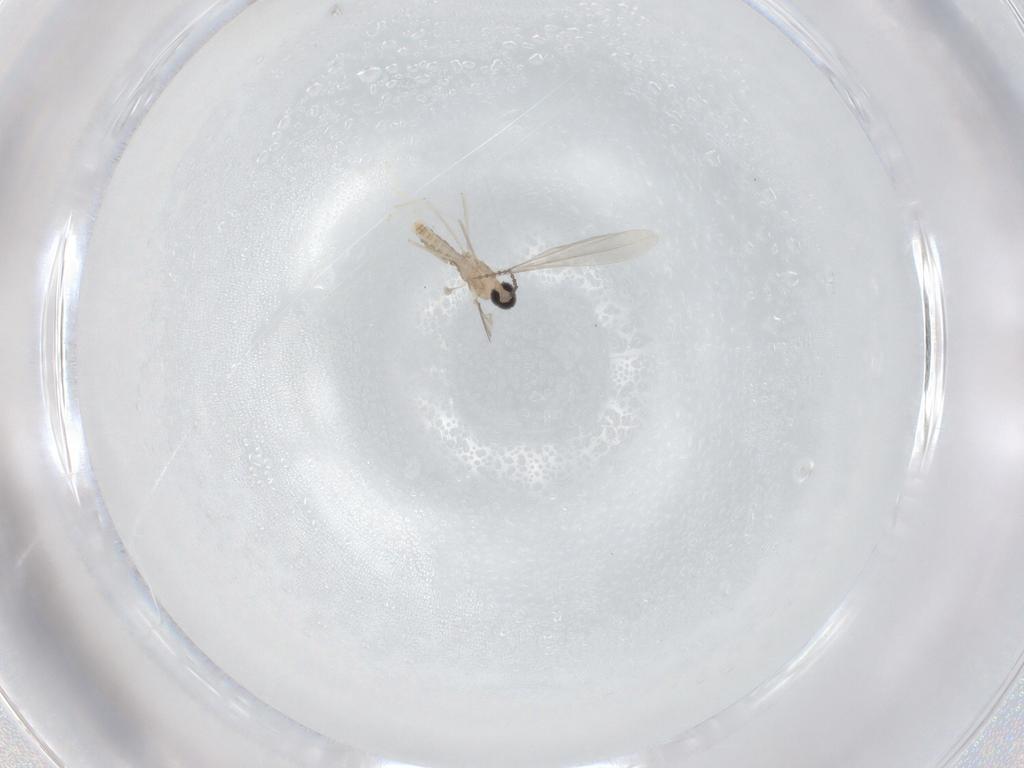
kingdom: Animalia
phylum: Arthropoda
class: Insecta
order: Diptera
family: Cecidomyiidae
